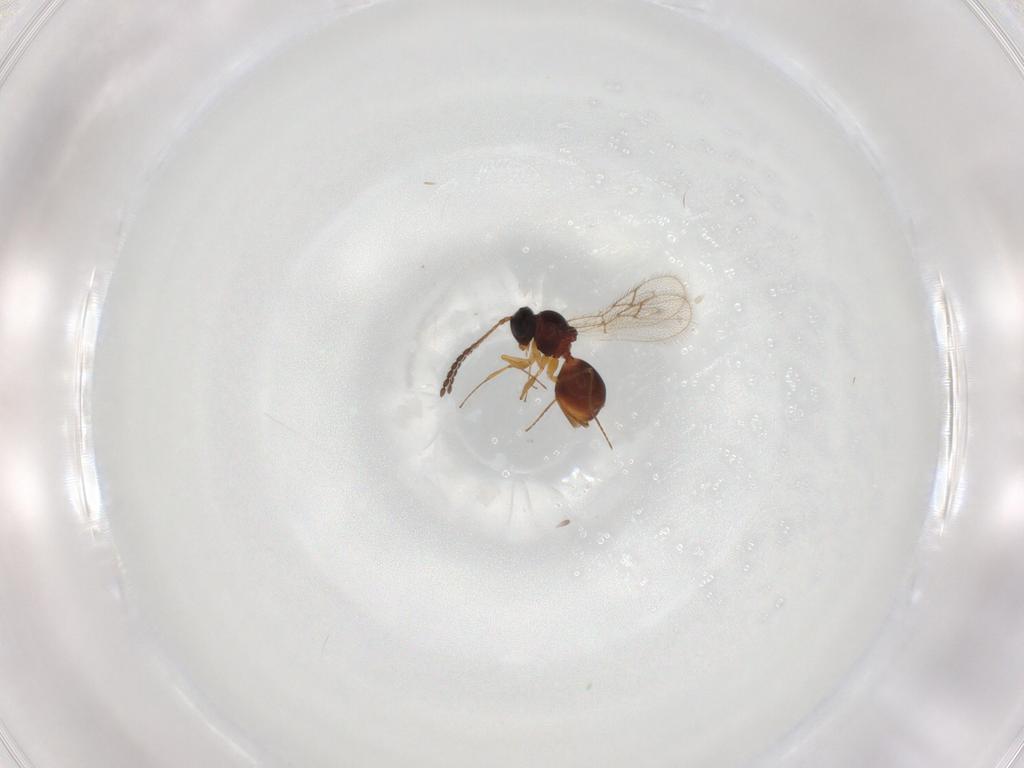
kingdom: Animalia
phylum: Arthropoda
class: Insecta
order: Hymenoptera
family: Figitidae
